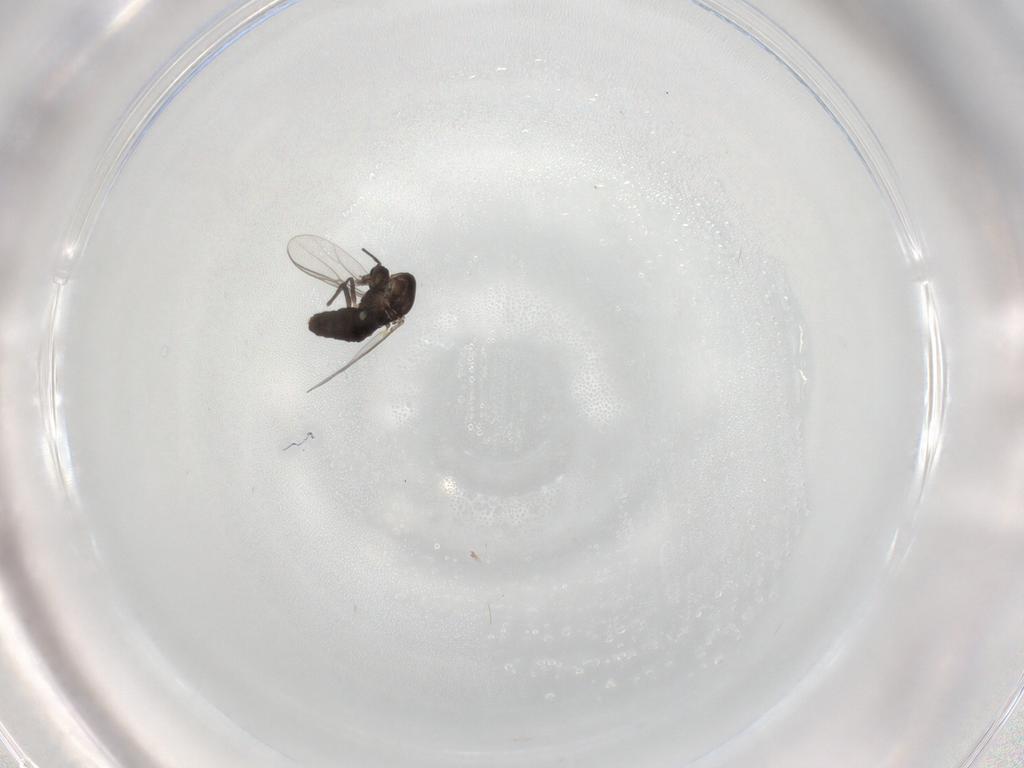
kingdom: Animalia
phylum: Arthropoda
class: Insecta
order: Diptera
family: Chironomidae
